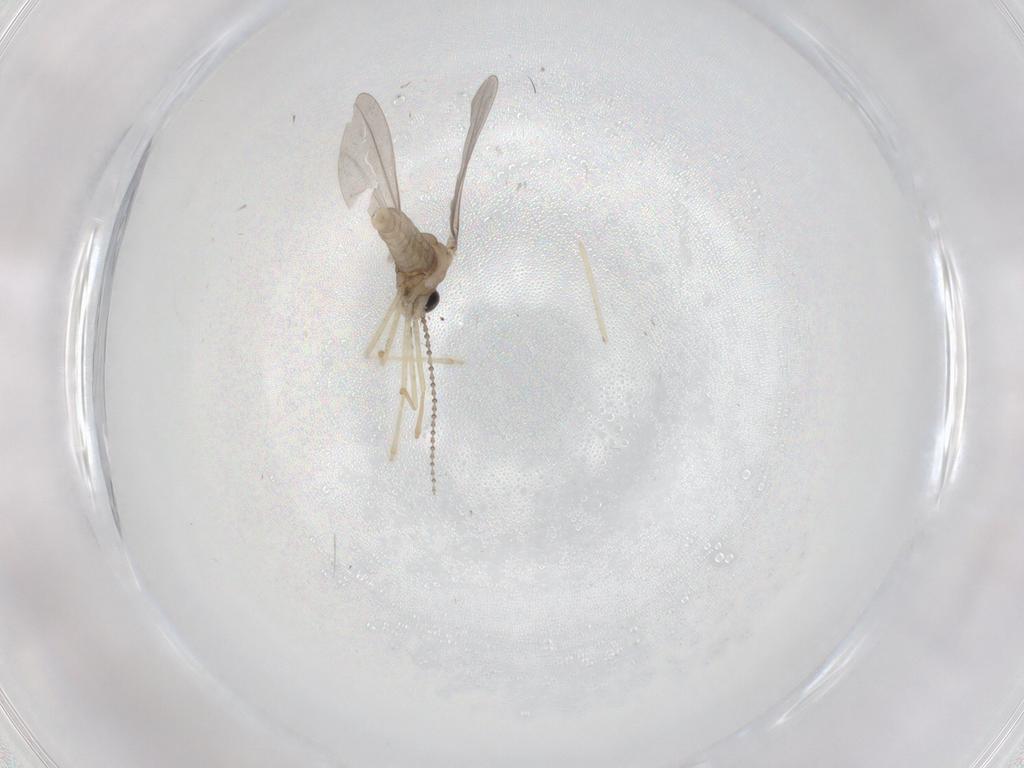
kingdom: Animalia
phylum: Arthropoda
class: Insecta
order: Diptera
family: Cecidomyiidae
